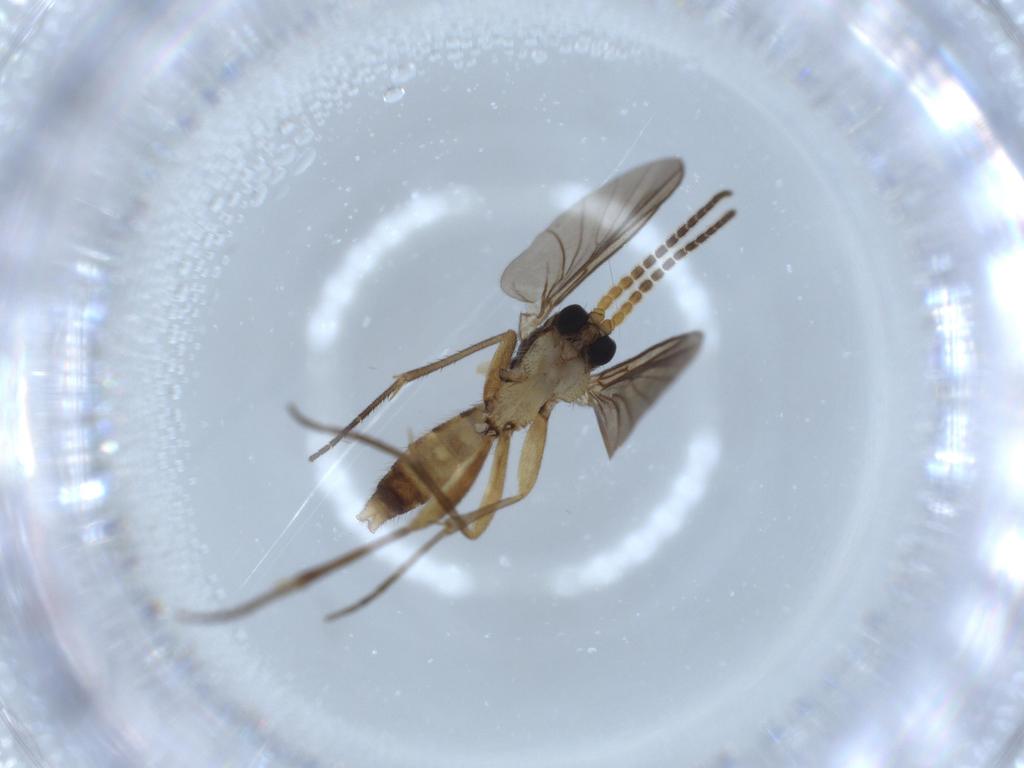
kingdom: Animalia
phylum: Arthropoda
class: Insecta
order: Diptera
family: Sciaridae
